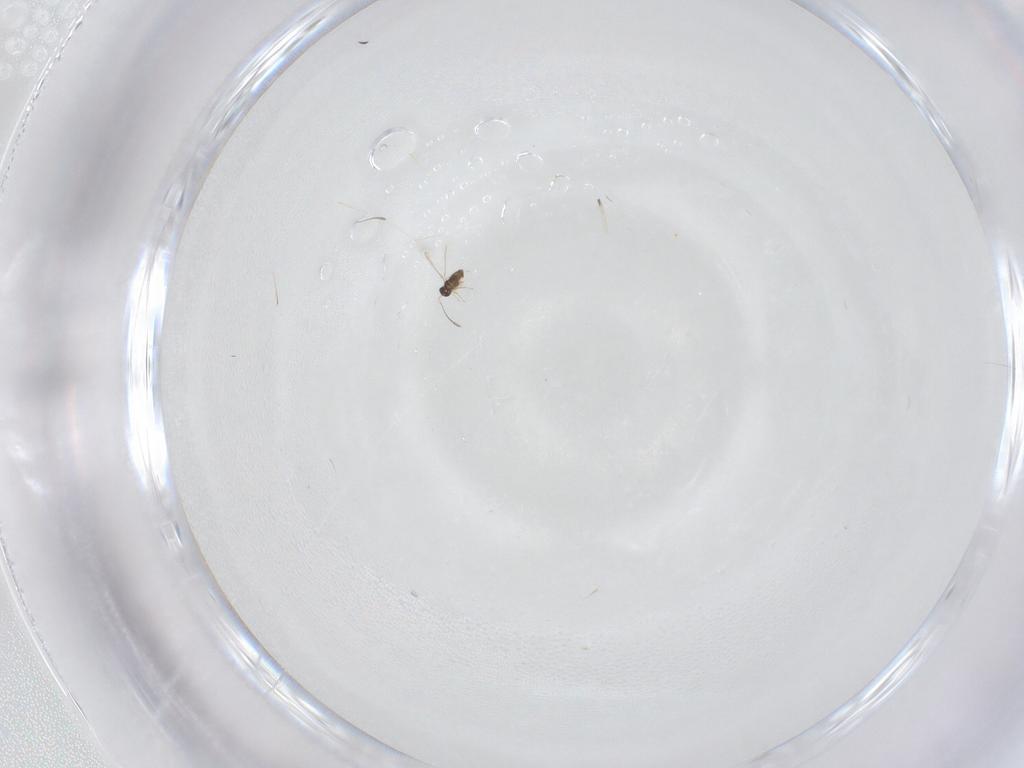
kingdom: Animalia
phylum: Arthropoda
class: Insecta
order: Hymenoptera
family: Trichogrammatidae
